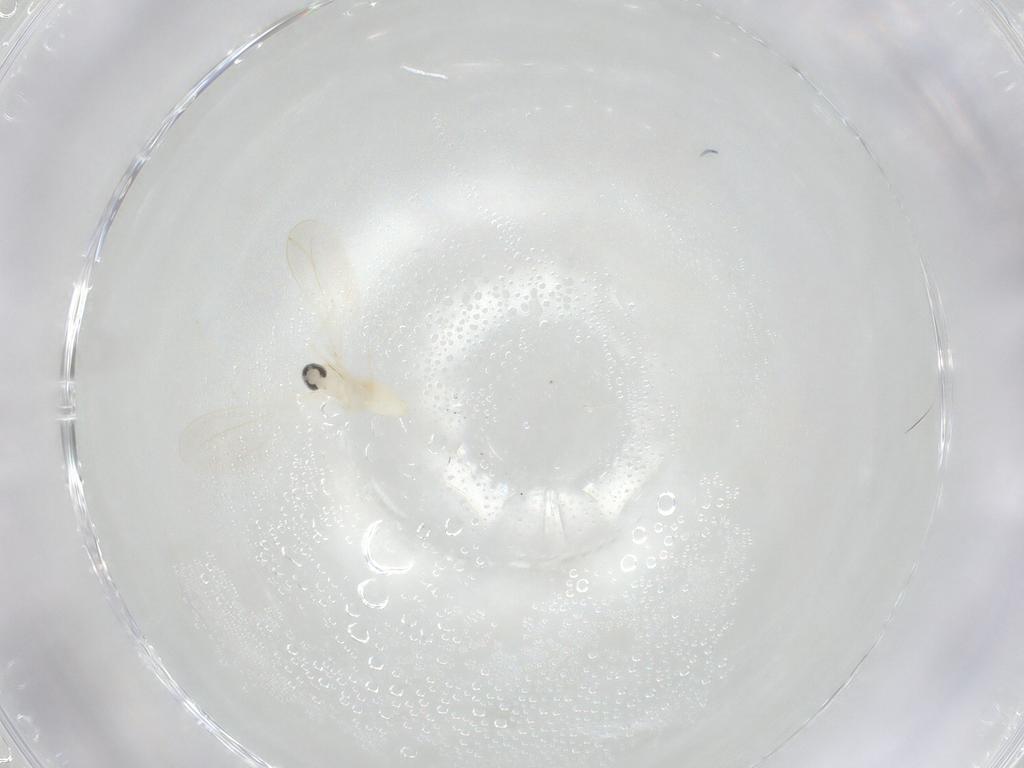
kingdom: Animalia
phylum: Arthropoda
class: Insecta
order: Diptera
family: Cecidomyiidae
